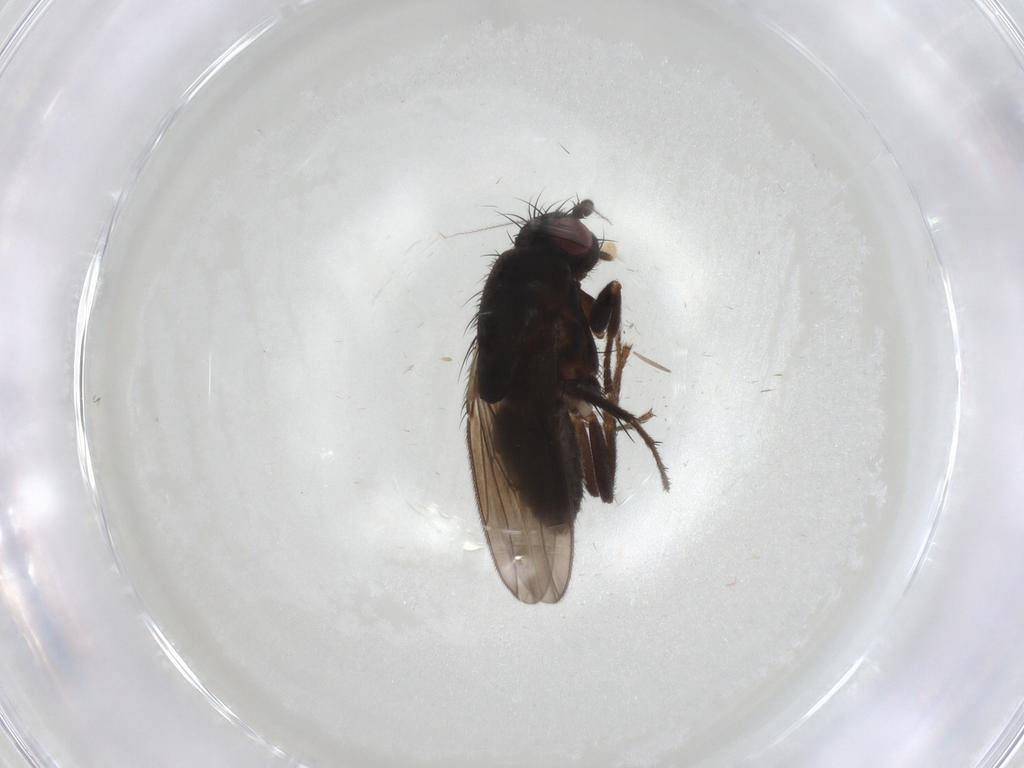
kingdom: Animalia
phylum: Arthropoda
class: Insecta
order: Diptera
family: Sphaeroceridae
